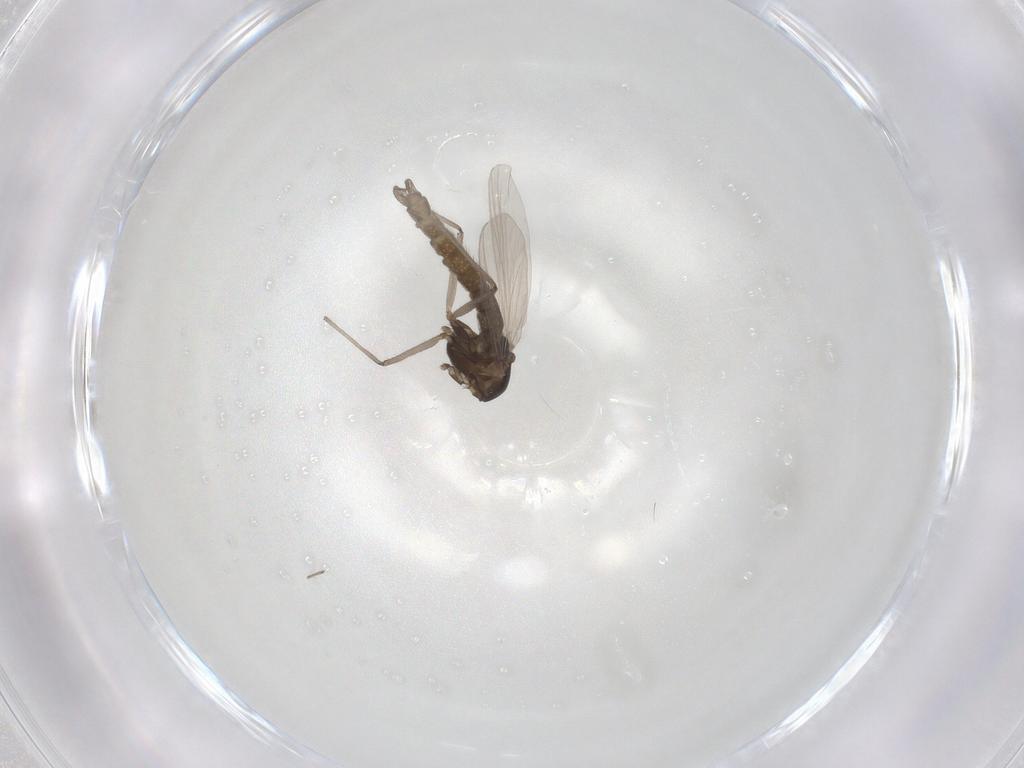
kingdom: Animalia
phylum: Arthropoda
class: Insecta
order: Diptera
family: Chironomidae
